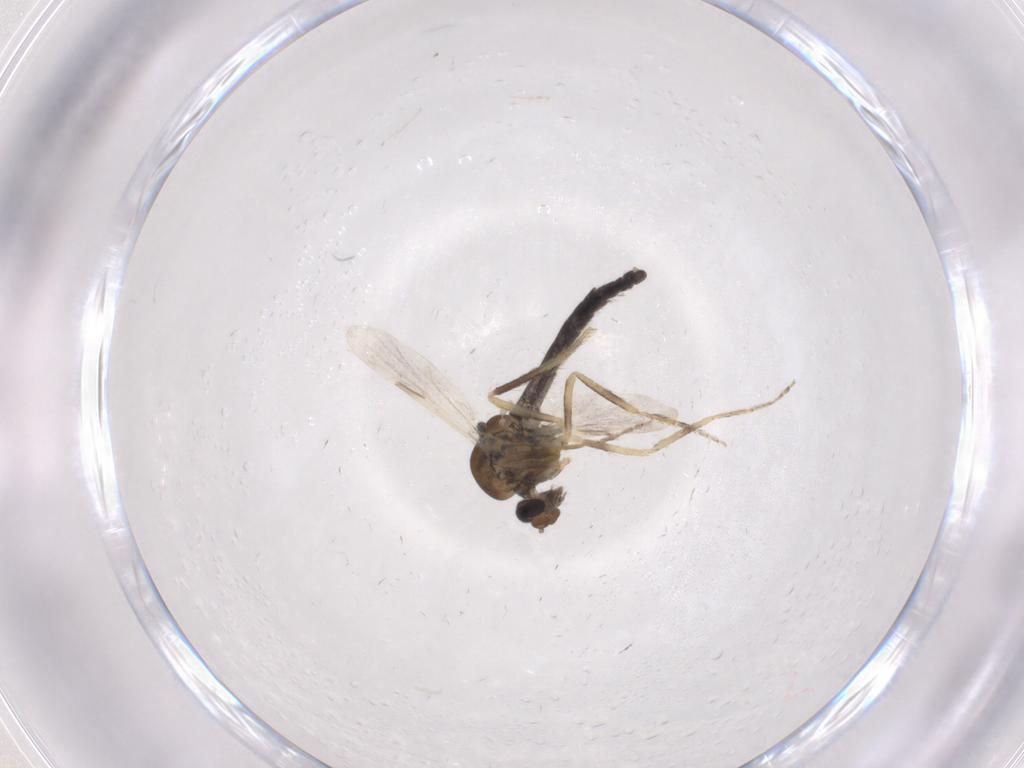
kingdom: Animalia
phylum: Arthropoda
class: Insecta
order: Diptera
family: Ceratopogonidae
